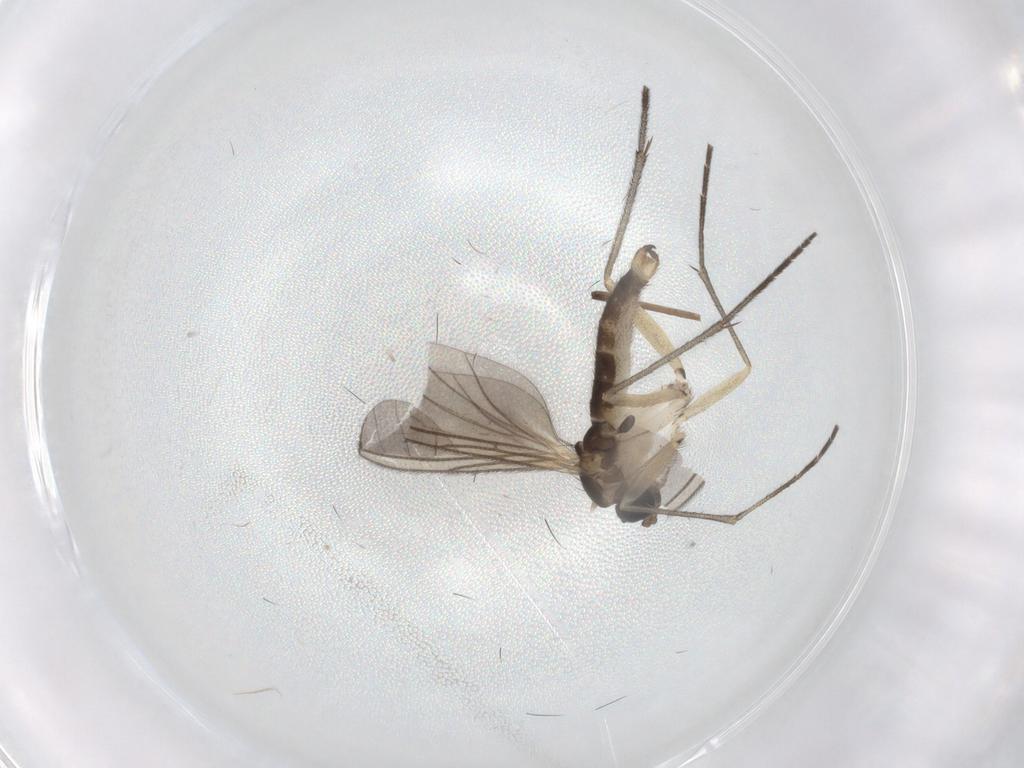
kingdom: Animalia
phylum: Arthropoda
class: Insecta
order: Diptera
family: Sciaridae
